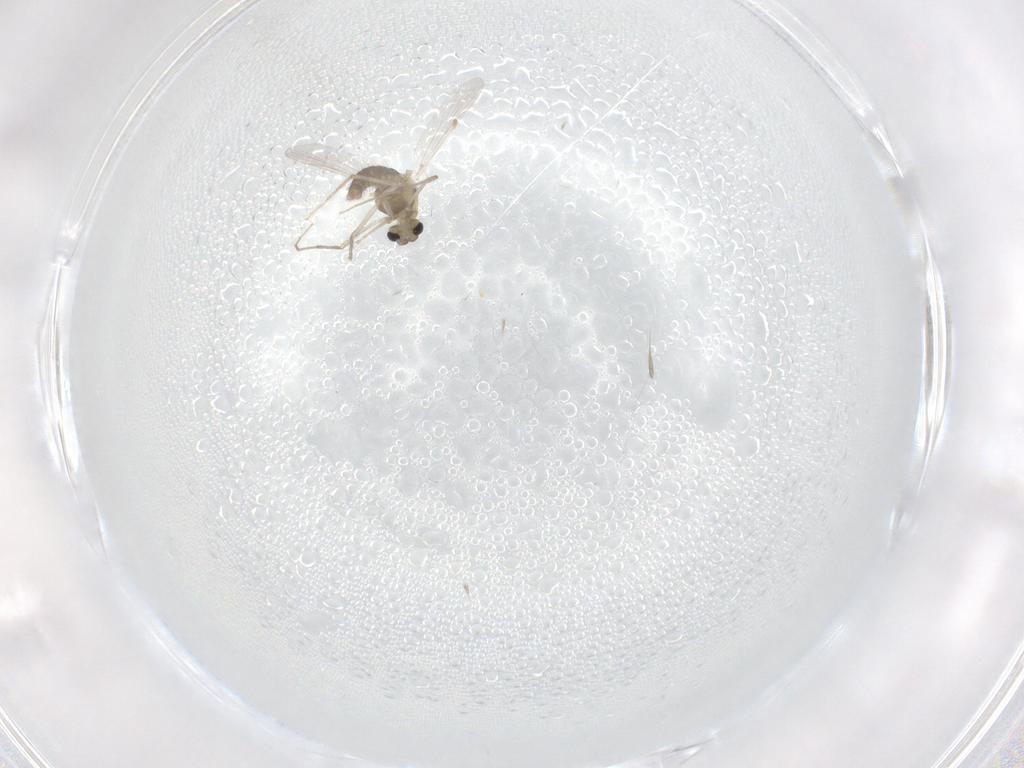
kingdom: Animalia
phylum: Arthropoda
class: Insecta
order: Diptera
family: Chironomidae
